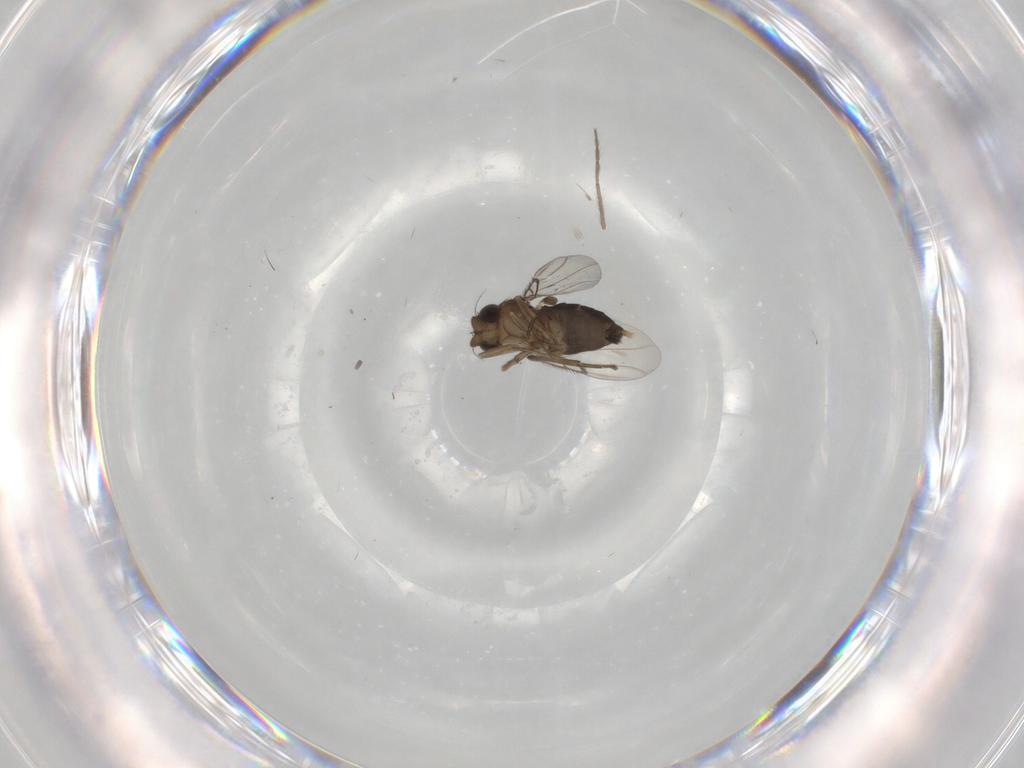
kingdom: Animalia
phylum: Arthropoda
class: Insecta
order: Diptera
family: Phoridae
